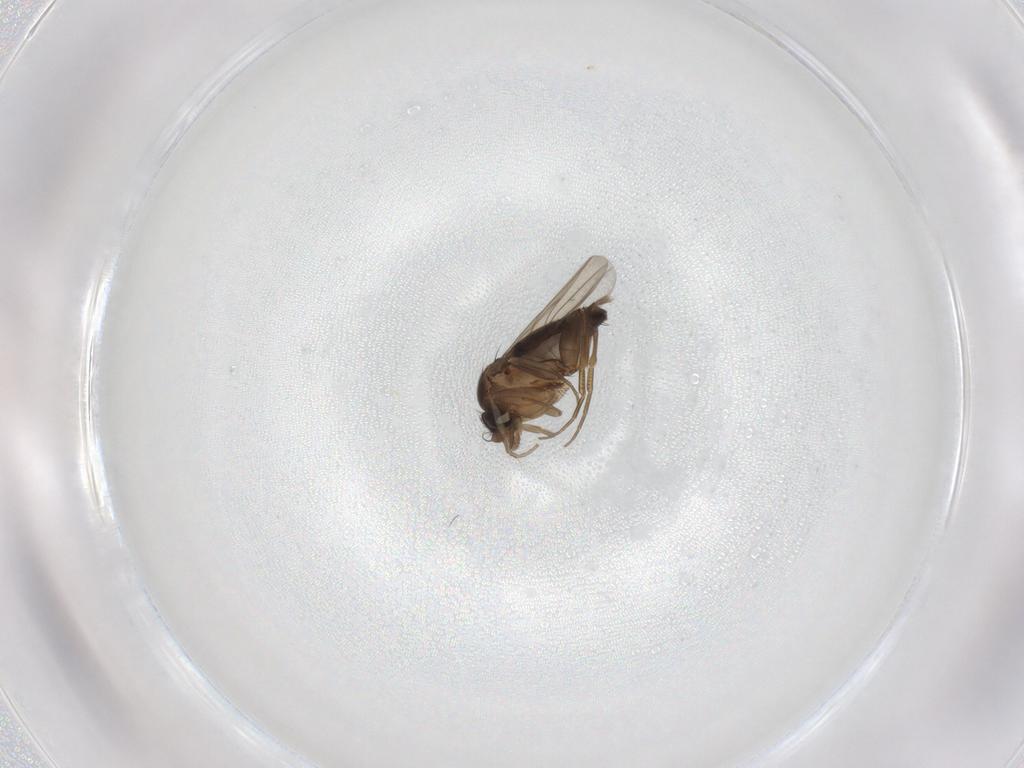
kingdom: Animalia
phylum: Arthropoda
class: Insecta
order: Diptera
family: Phoridae
